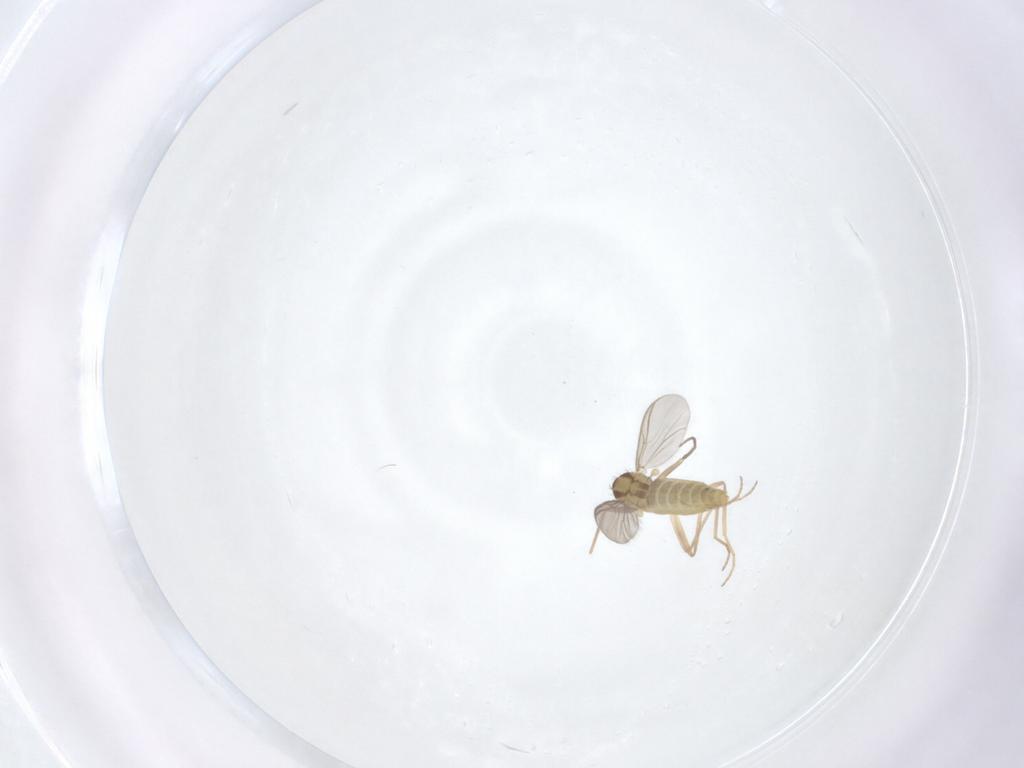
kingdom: Animalia
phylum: Arthropoda
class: Insecta
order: Diptera
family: Chironomidae
